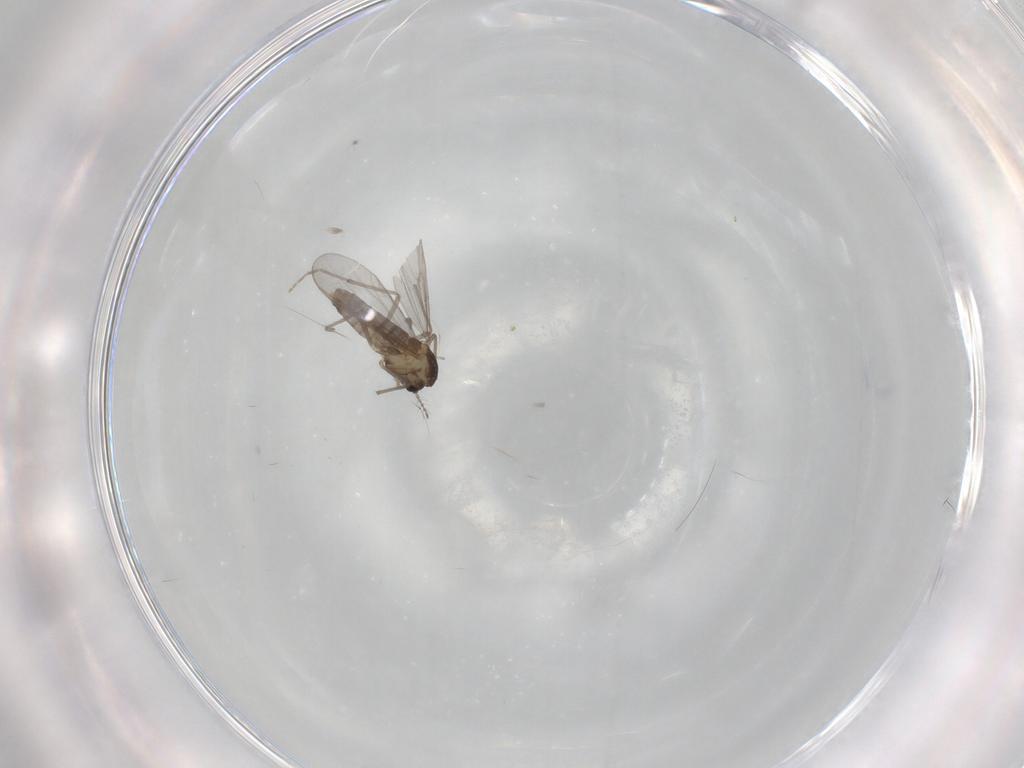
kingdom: Animalia
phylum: Arthropoda
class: Insecta
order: Diptera
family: Chironomidae
